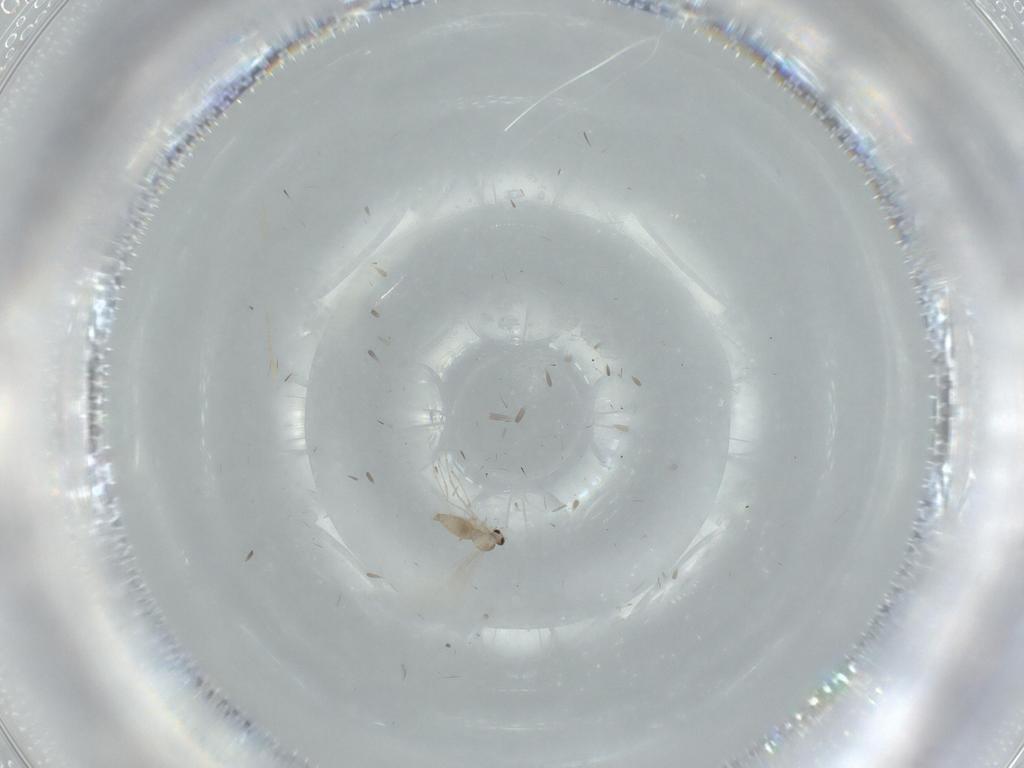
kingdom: Animalia
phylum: Arthropoda
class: Insecta
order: Diptera
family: Cecidomyiidae
